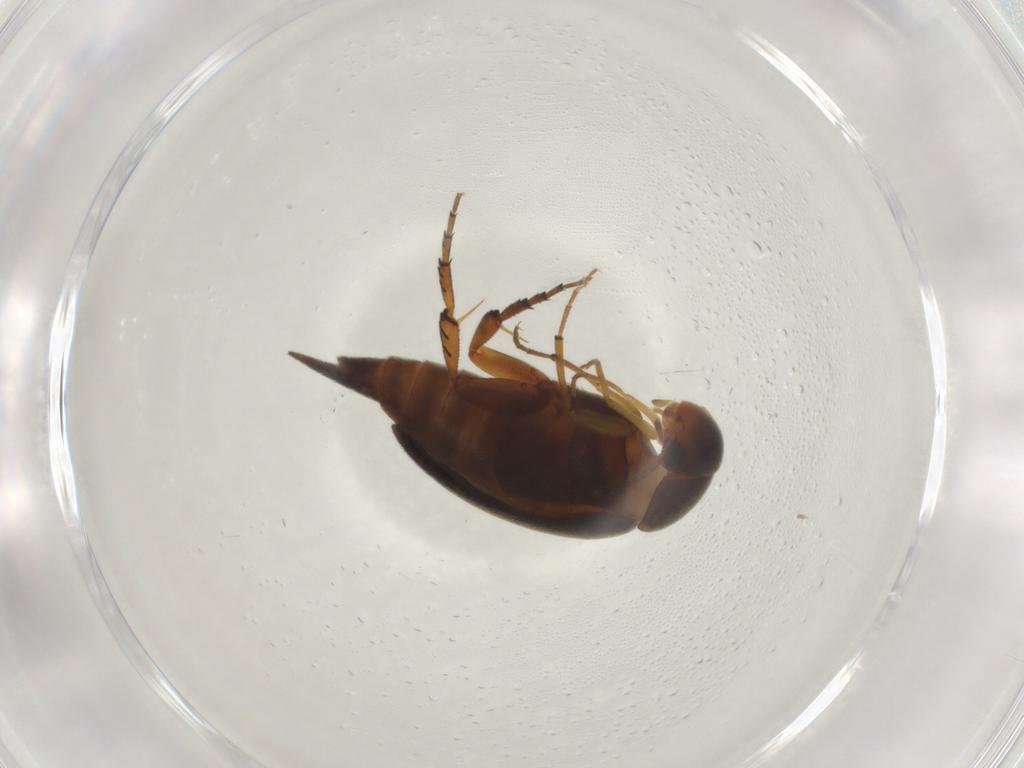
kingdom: Animalia
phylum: Arthropoda
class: Insecta
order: Coleoptera
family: Mordellidae
